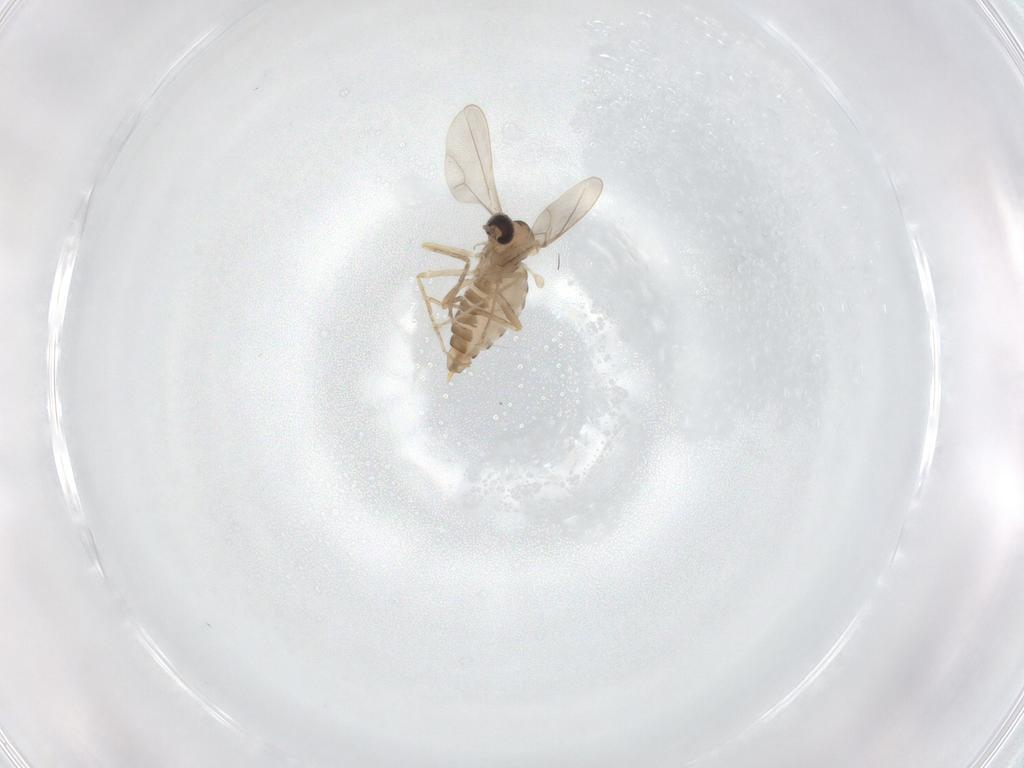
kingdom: Animalia
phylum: Arthropoda
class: Insecta
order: Diptera
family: Cecidomyiidae
